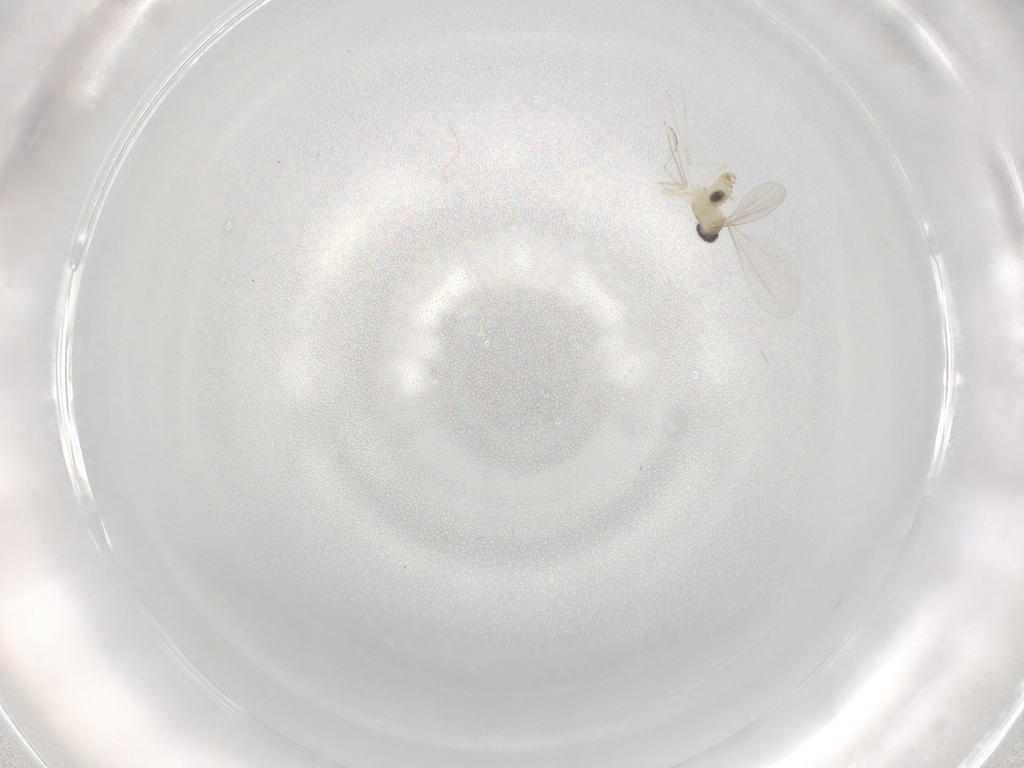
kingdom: Animalia
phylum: Arthropoda
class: Insecta
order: Diptera
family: Cecidomyiidae
